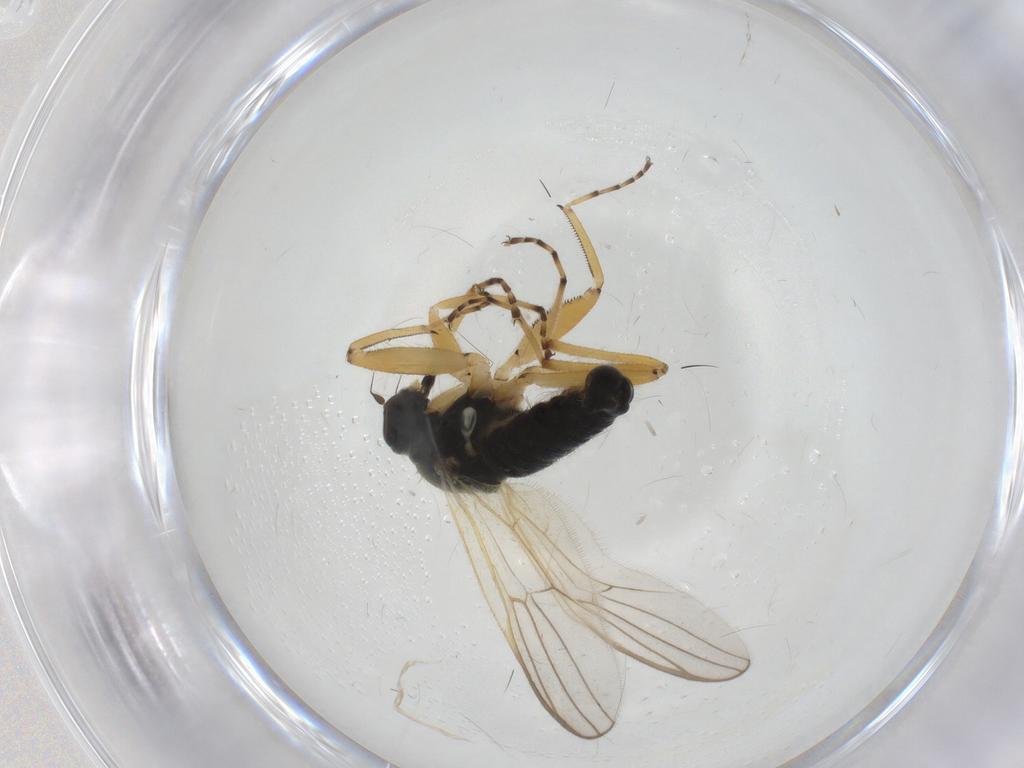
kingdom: Animalia
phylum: Arthropoda
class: Insecta
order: Diptera
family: Hybotidae
